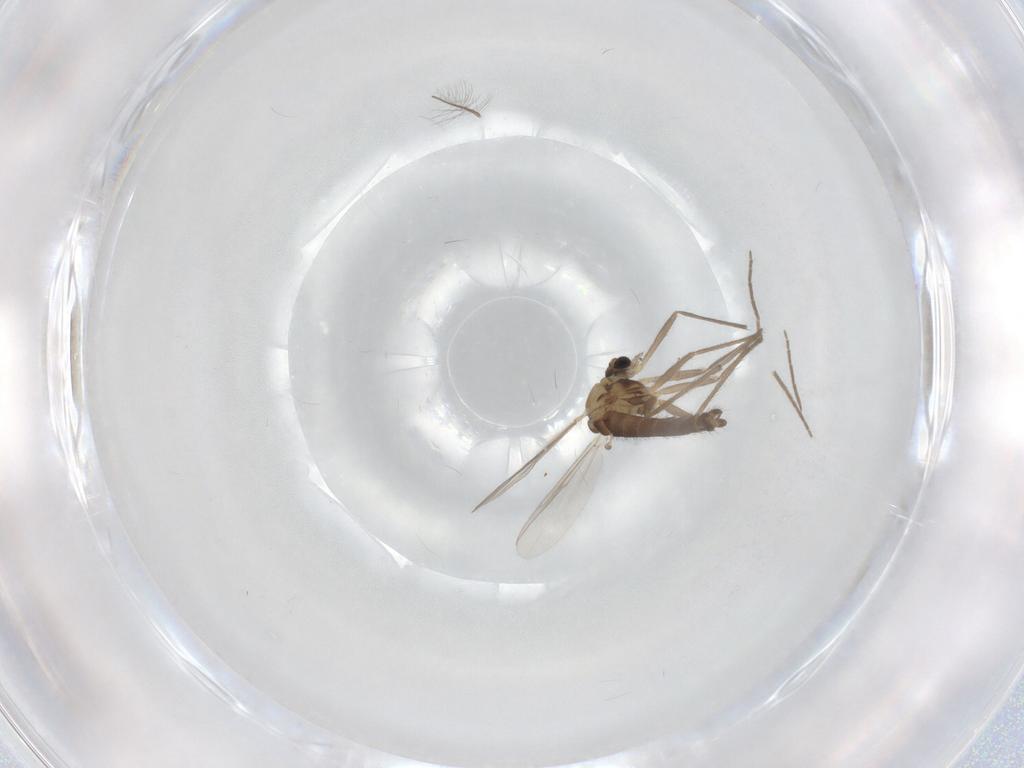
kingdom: Animalia
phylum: Arthropoda
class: Insecta
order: Diptera
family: Chironomidae
